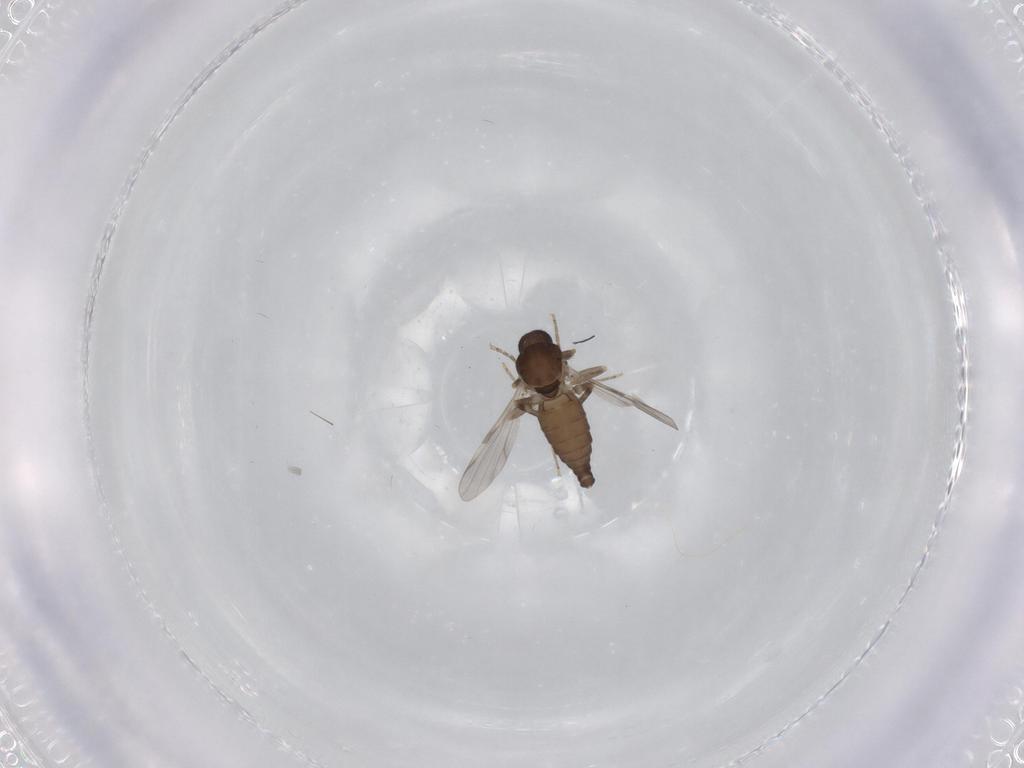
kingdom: Animalia
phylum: Arthropoda
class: Insecta
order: Diptera
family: Ceratopogonidae
